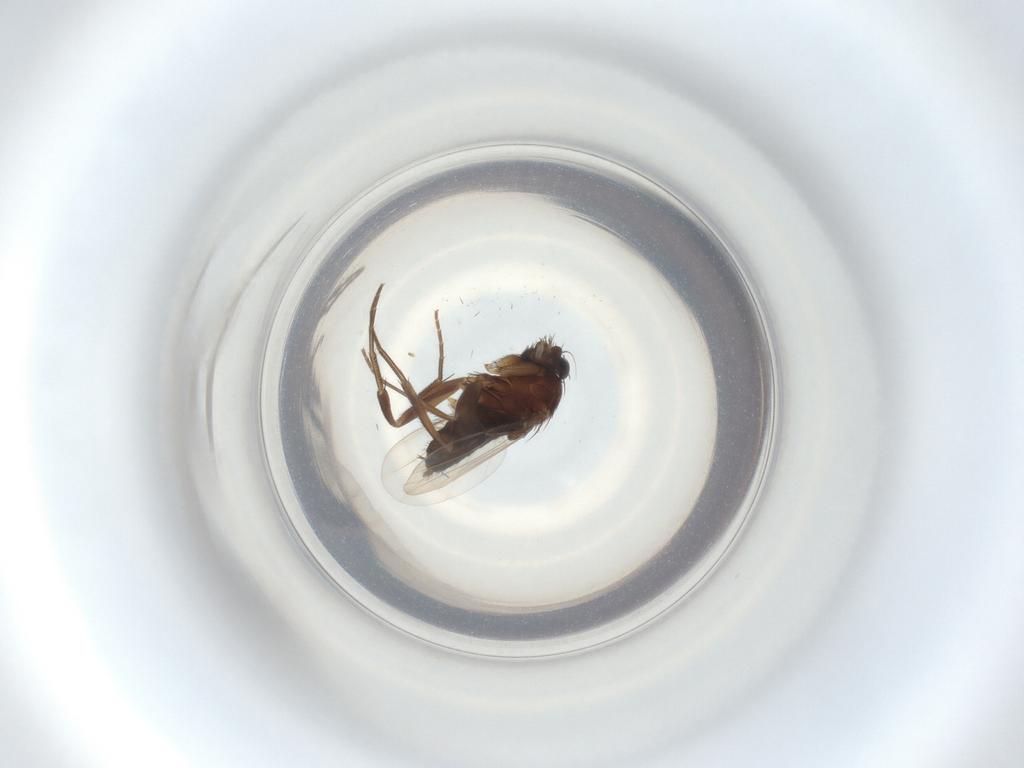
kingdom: Animalia
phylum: Arthropoda
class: Insecta
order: Diptera
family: Phoridae
